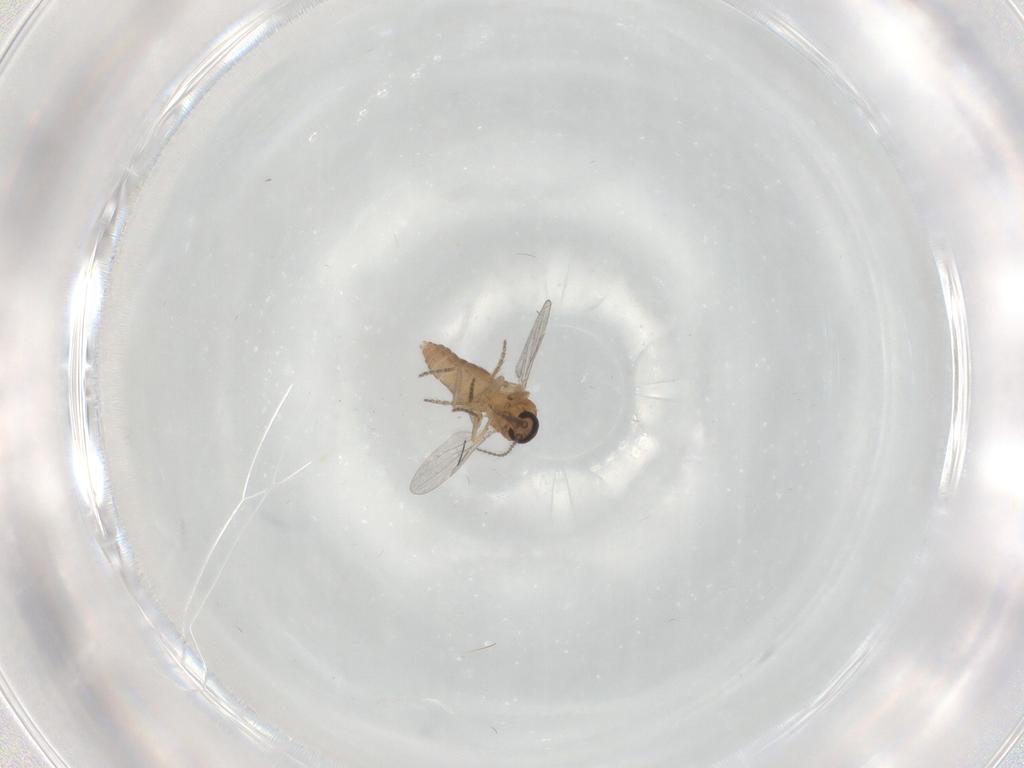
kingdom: Animalia
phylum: Arthropoda
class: Insecta
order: Diptera
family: Ceratopogonidae
